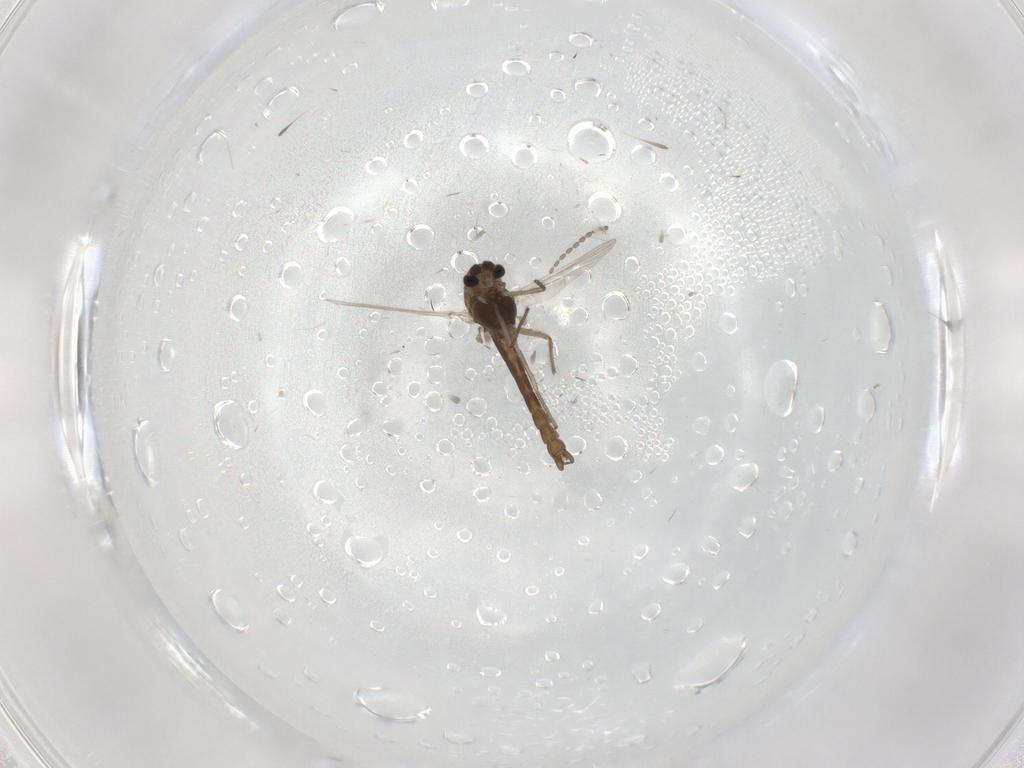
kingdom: Animalia
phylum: Arthropoda
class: Insecta
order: Diptera
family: Chironomidae
